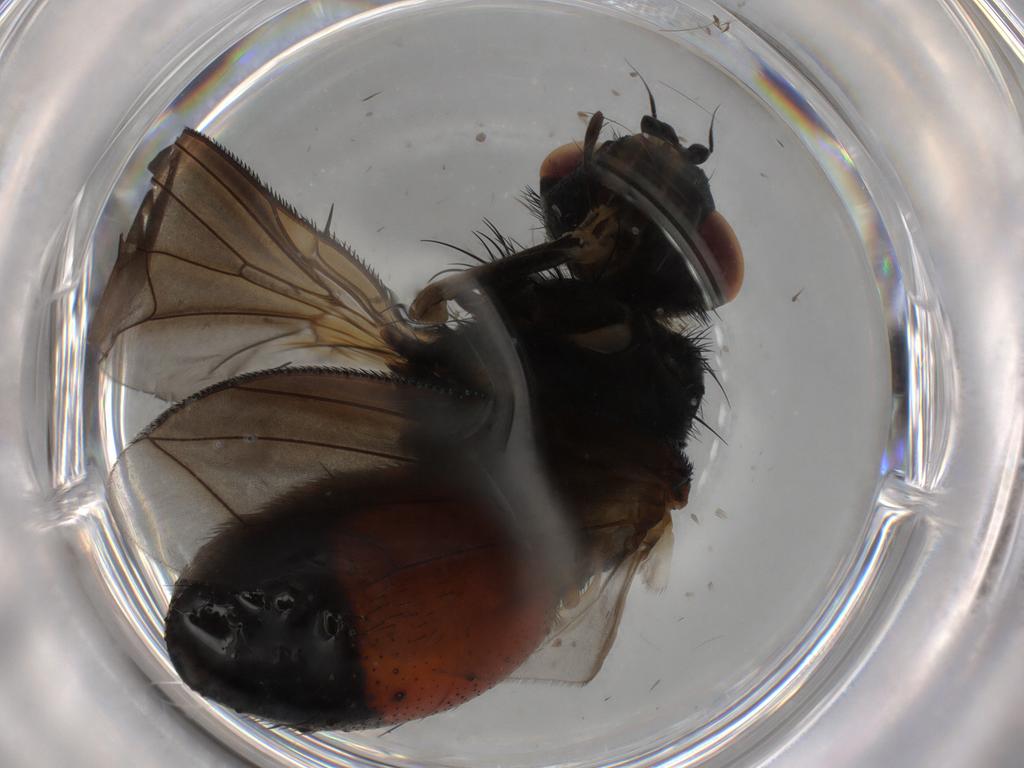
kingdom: Animalia
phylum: Arthropoda
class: Insecta
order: Diptera
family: Tachinidae
